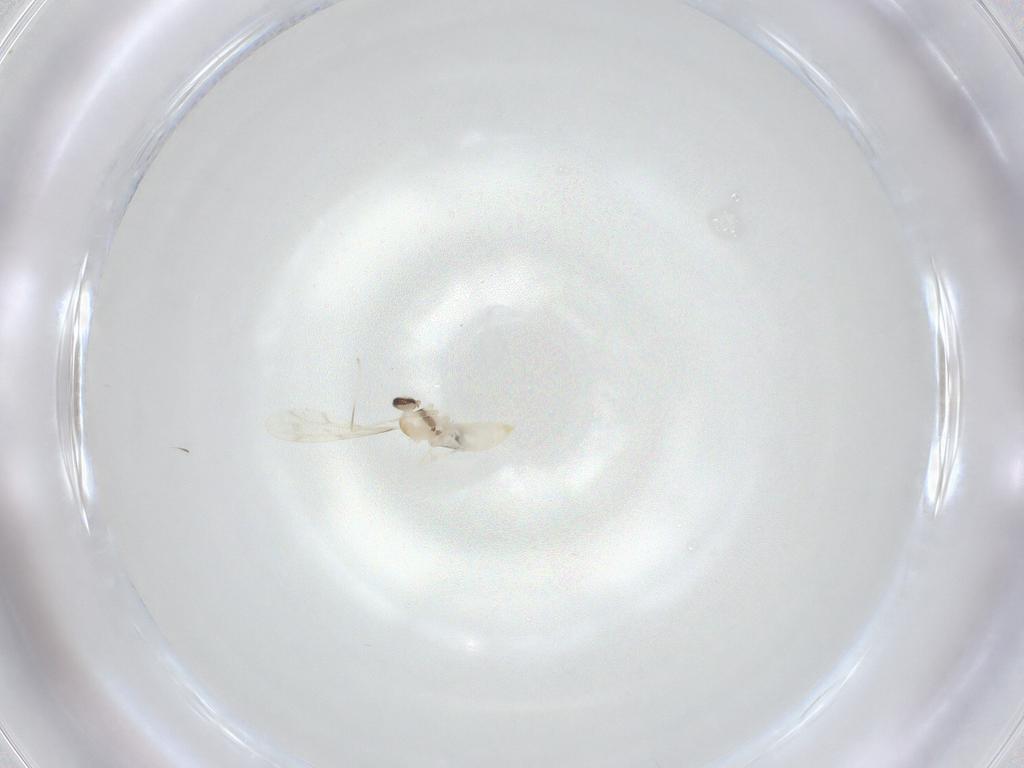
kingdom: Animalia
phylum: Arthropoda
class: Insecta
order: Diptera
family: Cecidomyiidae
